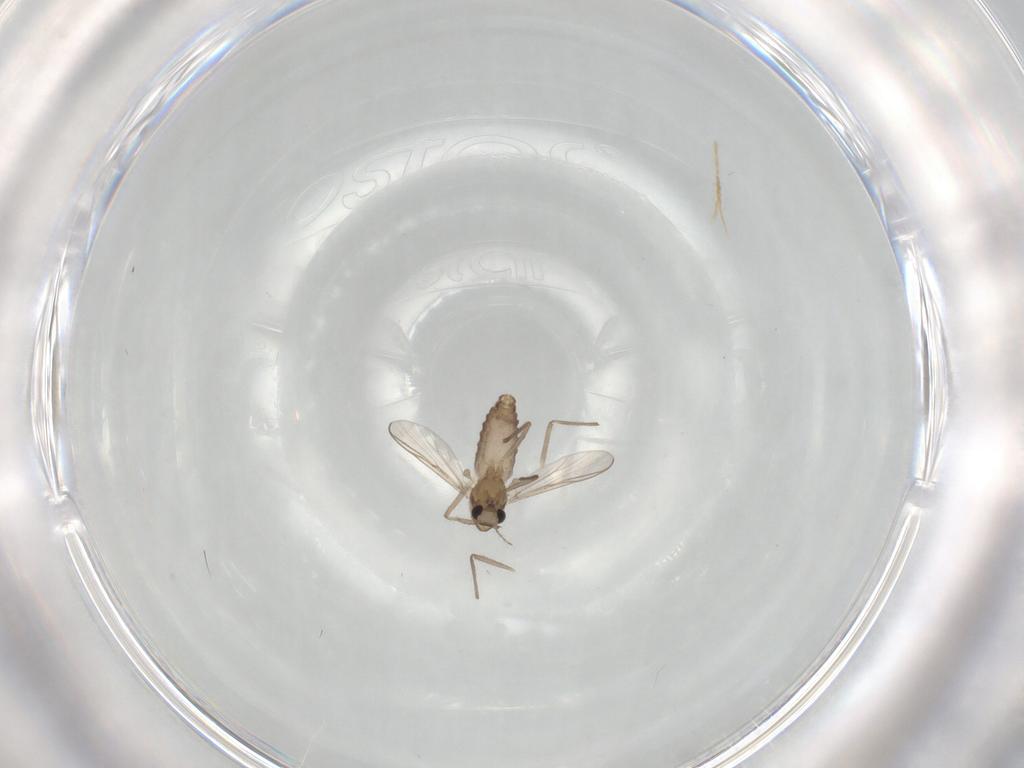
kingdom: Animalia
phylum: Arthropoda
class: Insecta
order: Diptera
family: Chironomidae
